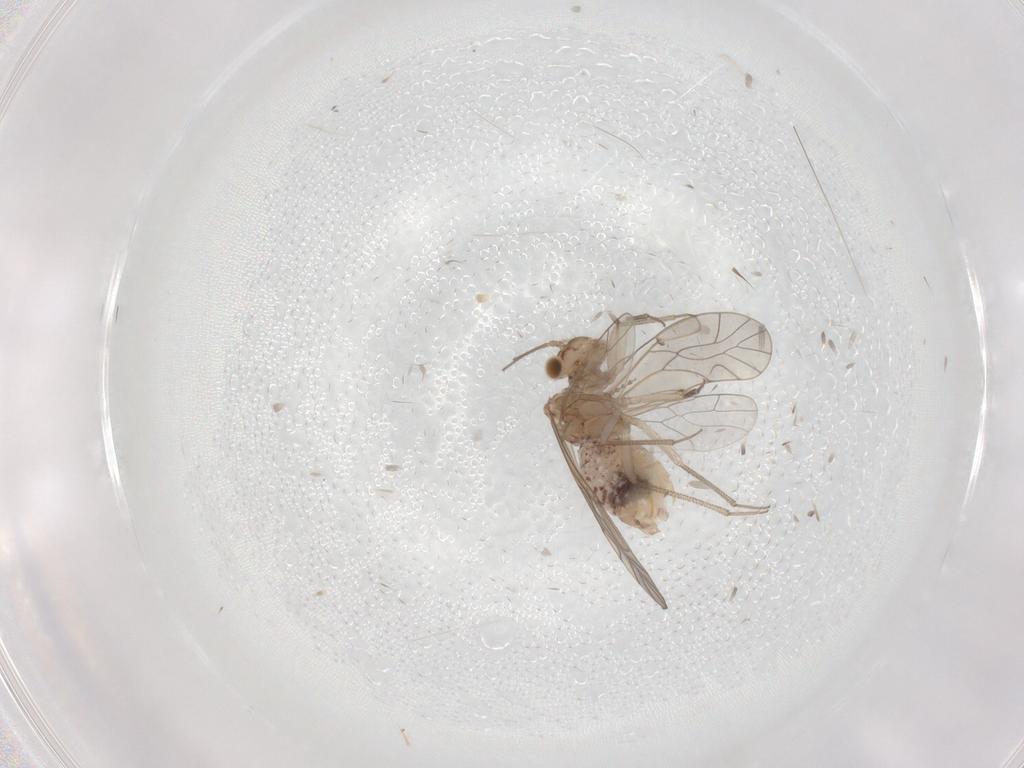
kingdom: Animalia
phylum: Arthropoda
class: Insecta
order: Psocodea
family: Lachesillidae
